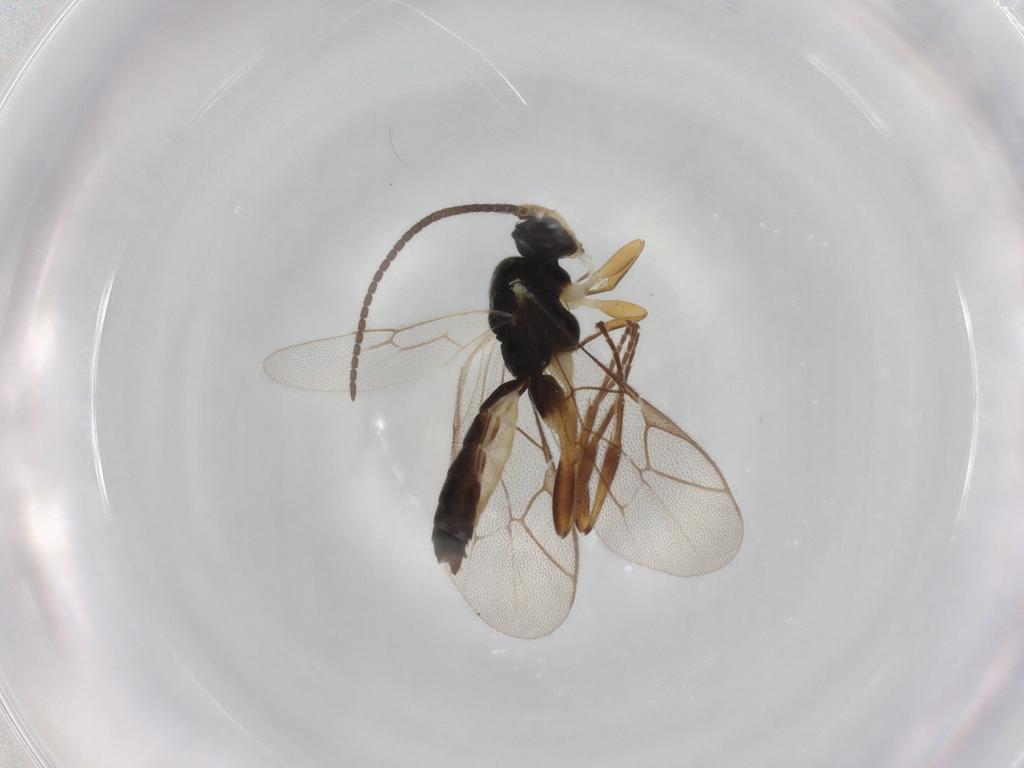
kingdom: Animalia
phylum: Arthropoda
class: Insecta
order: Hymenoptera
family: Ichneumonidae
